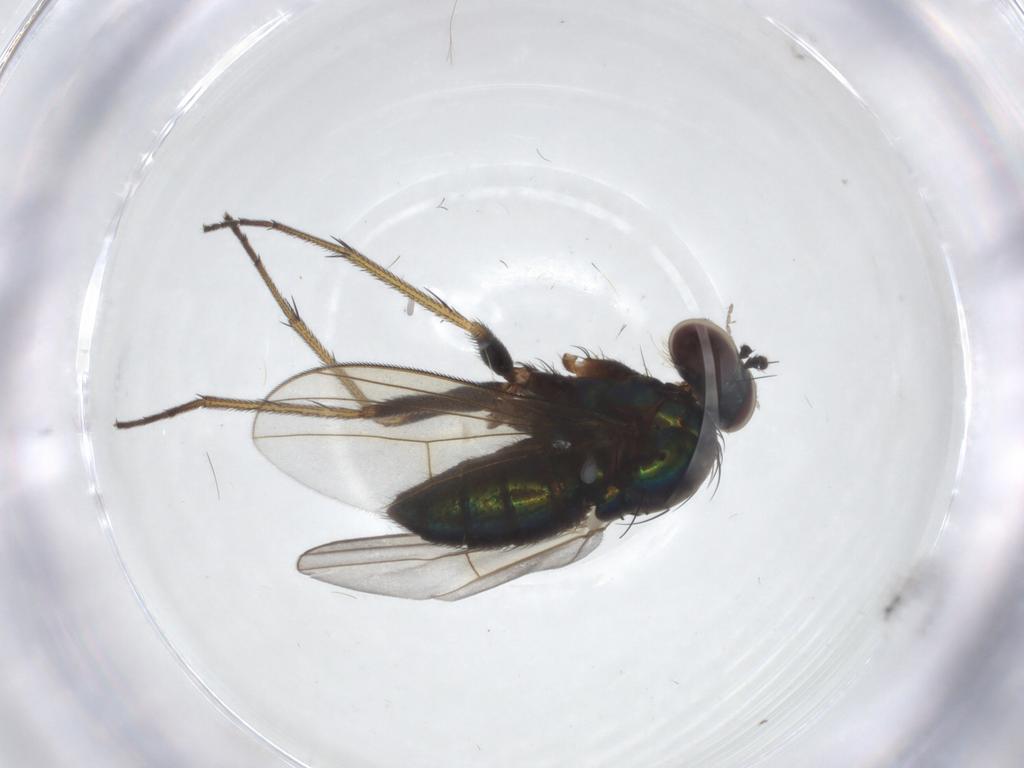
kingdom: Animalia
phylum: Arthropoda
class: Insecta
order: Diptera
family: Dolichopodidae
